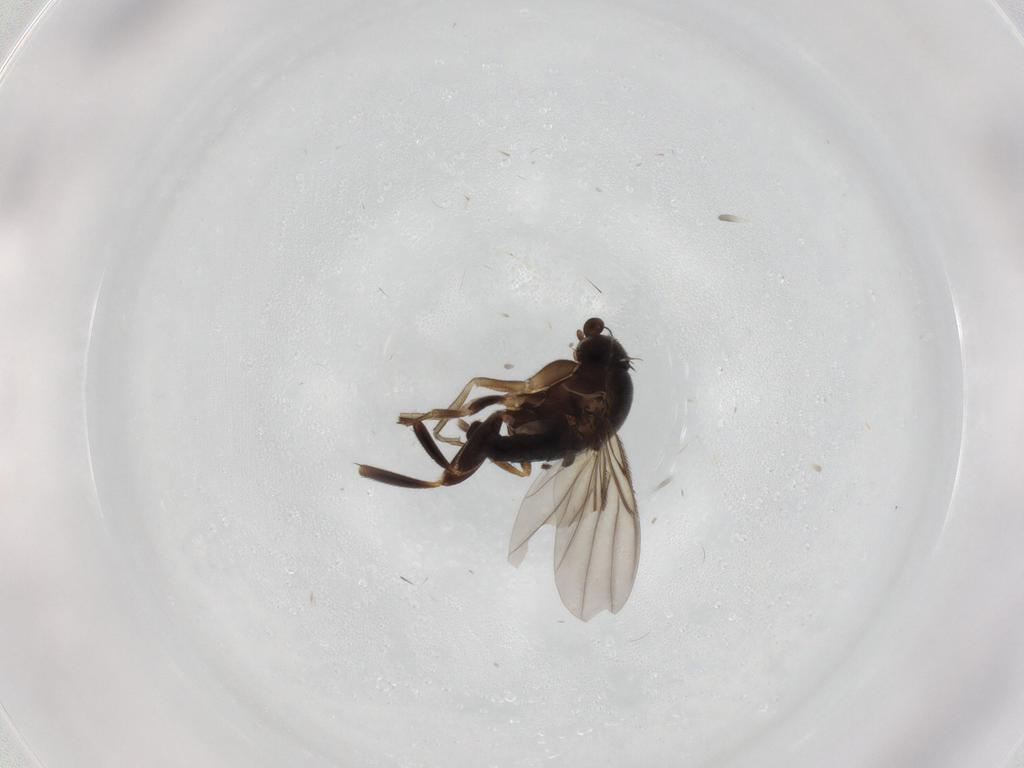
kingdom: Animalia
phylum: Arthropoda
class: Insecta
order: Diptera
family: Phoridae
